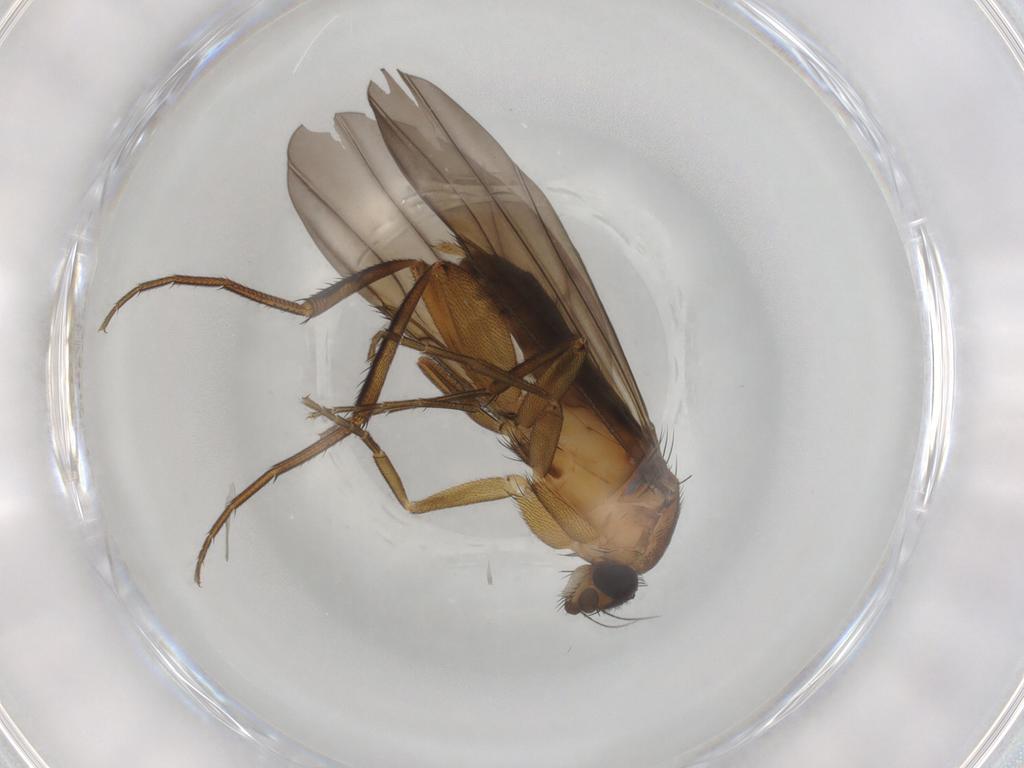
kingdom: Animalia
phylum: Arthropoda
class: Insecta
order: Diptera
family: Phoridae
